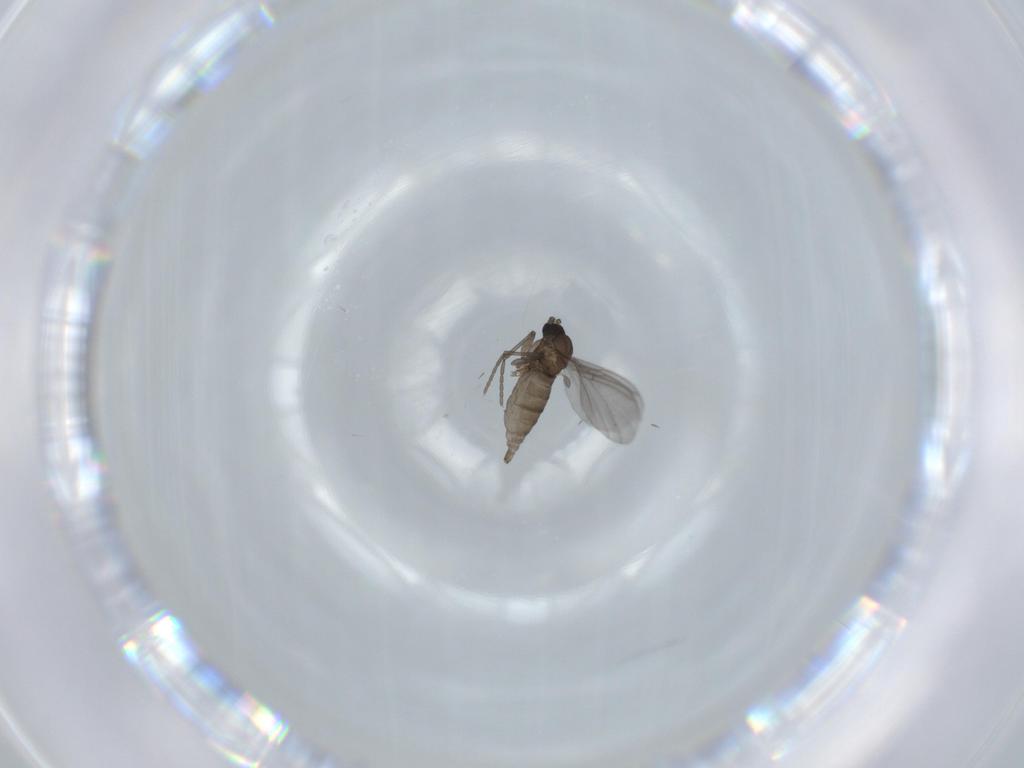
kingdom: Animalia
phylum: Arthropoda
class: Insecta
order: Diptera
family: Sciaridae
